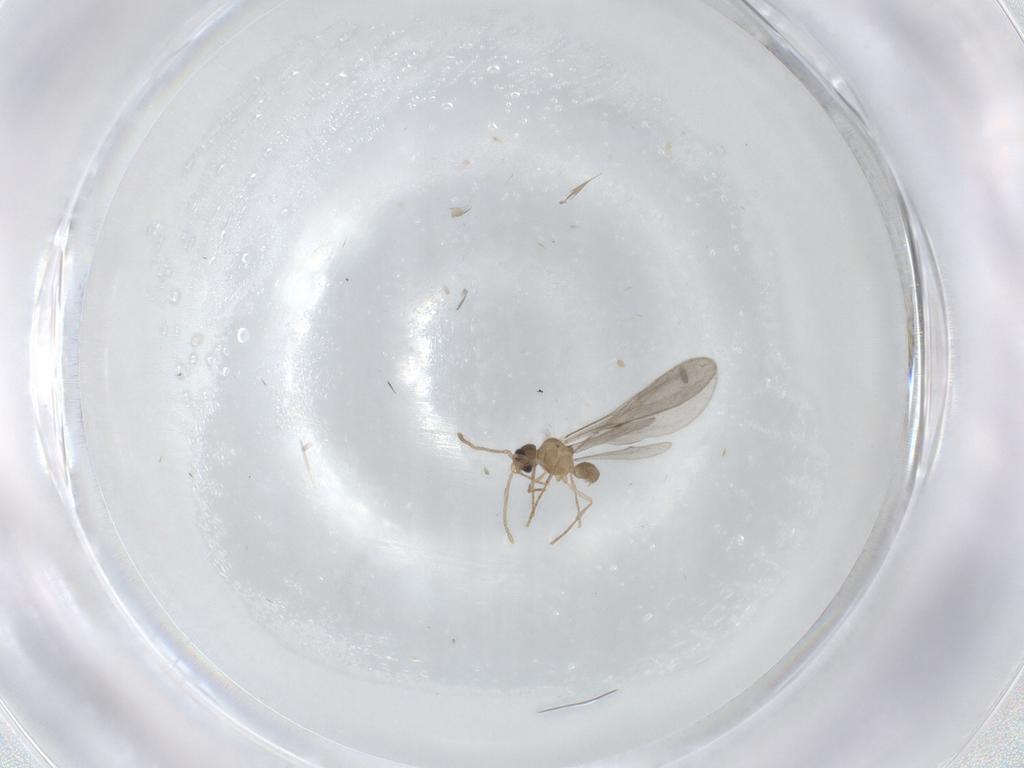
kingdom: Animalia
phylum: Arthropoda
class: Insecta
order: Hymenoptera
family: Formicidae
